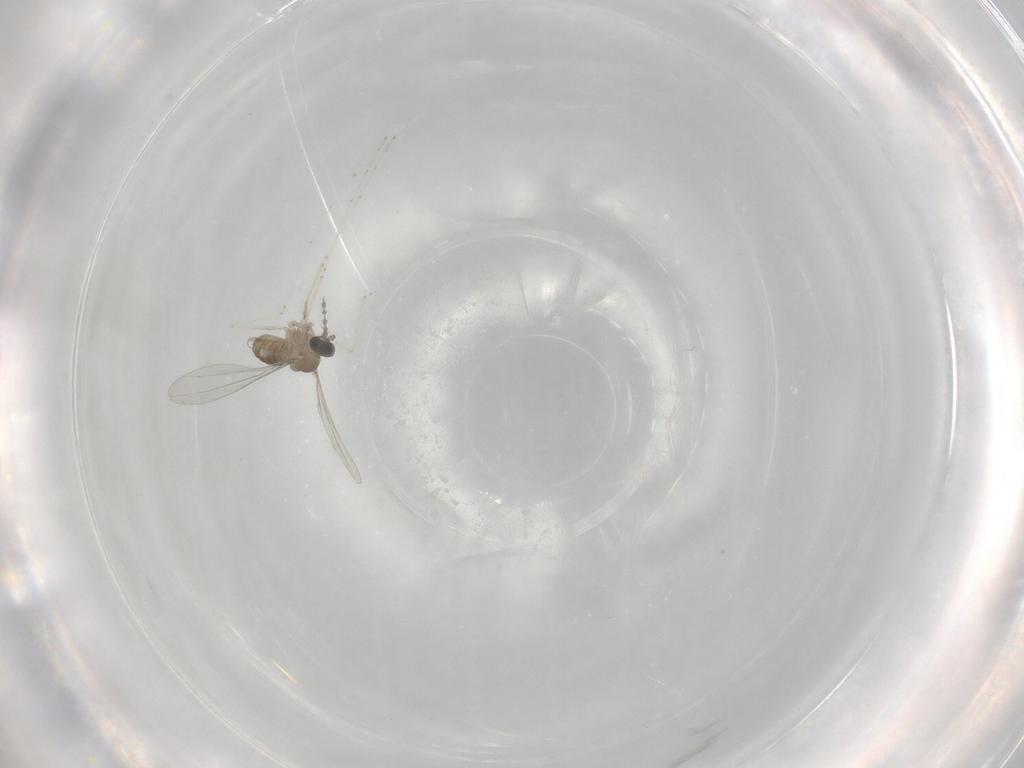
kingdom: Animalia
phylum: Arthropoda
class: Insecta
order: Diptera
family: Cecidomyiidae
